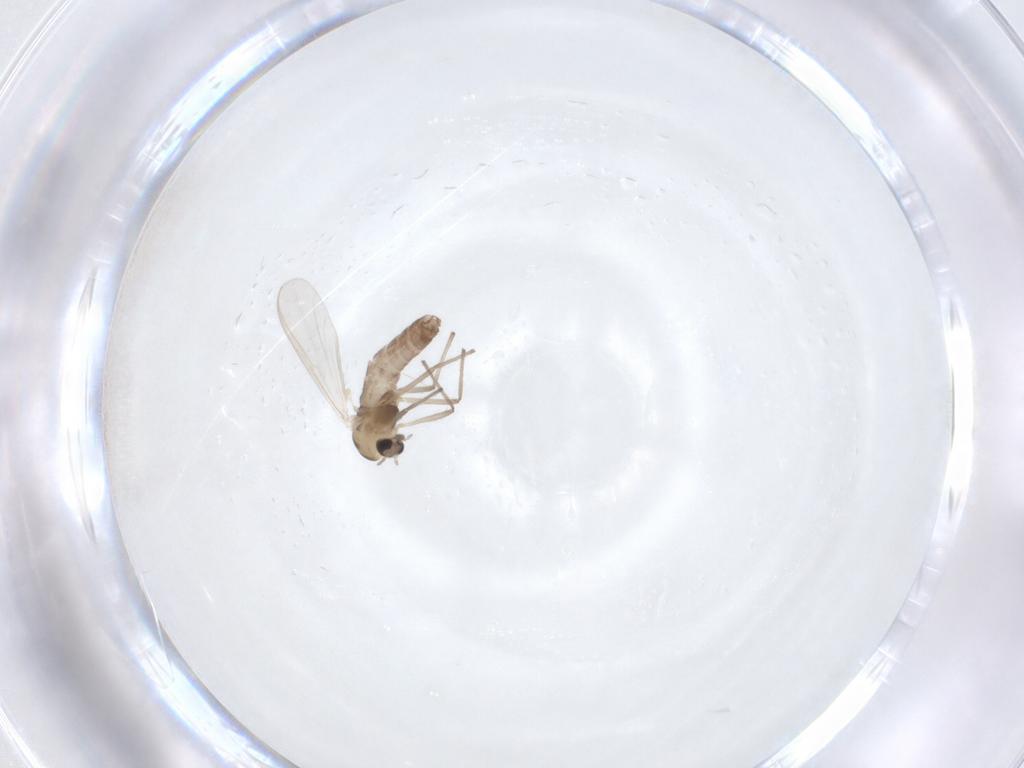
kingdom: Animalia
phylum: Arthropoda
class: Insecta
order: Diptera
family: Chironomidae
